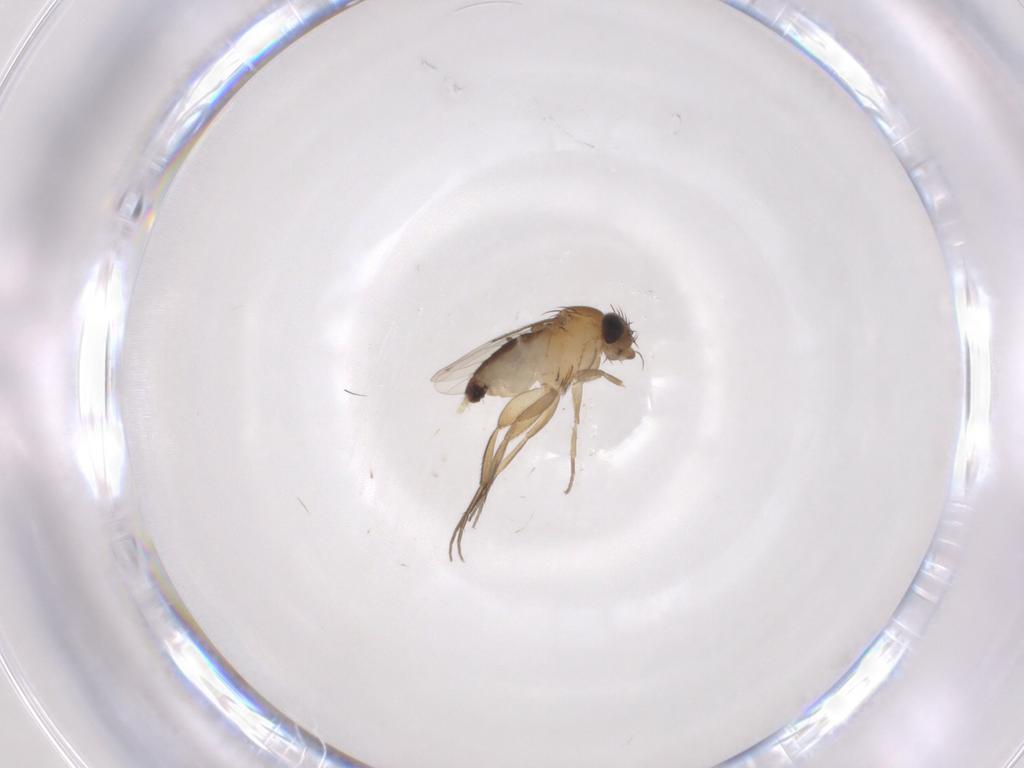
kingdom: Animalia
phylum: Arthropoda
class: Insecta
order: Diptera
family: Phoridae
